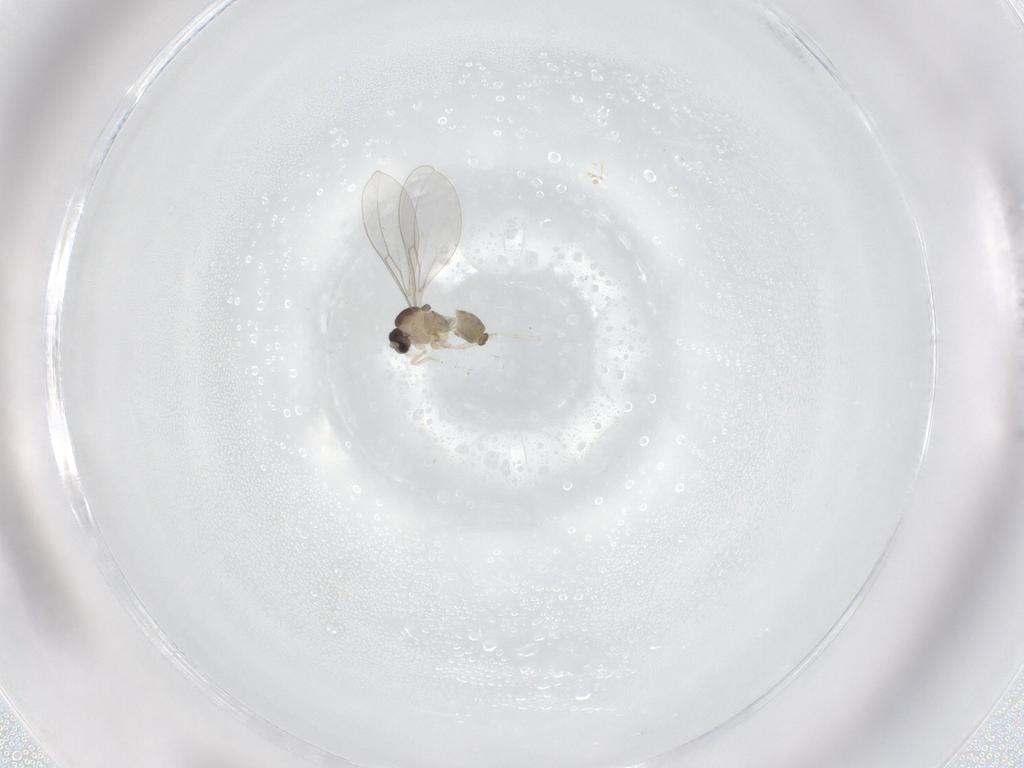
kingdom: Animalia
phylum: Arthropoda
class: Insecta
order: Diptera
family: Cecidomyiidae
